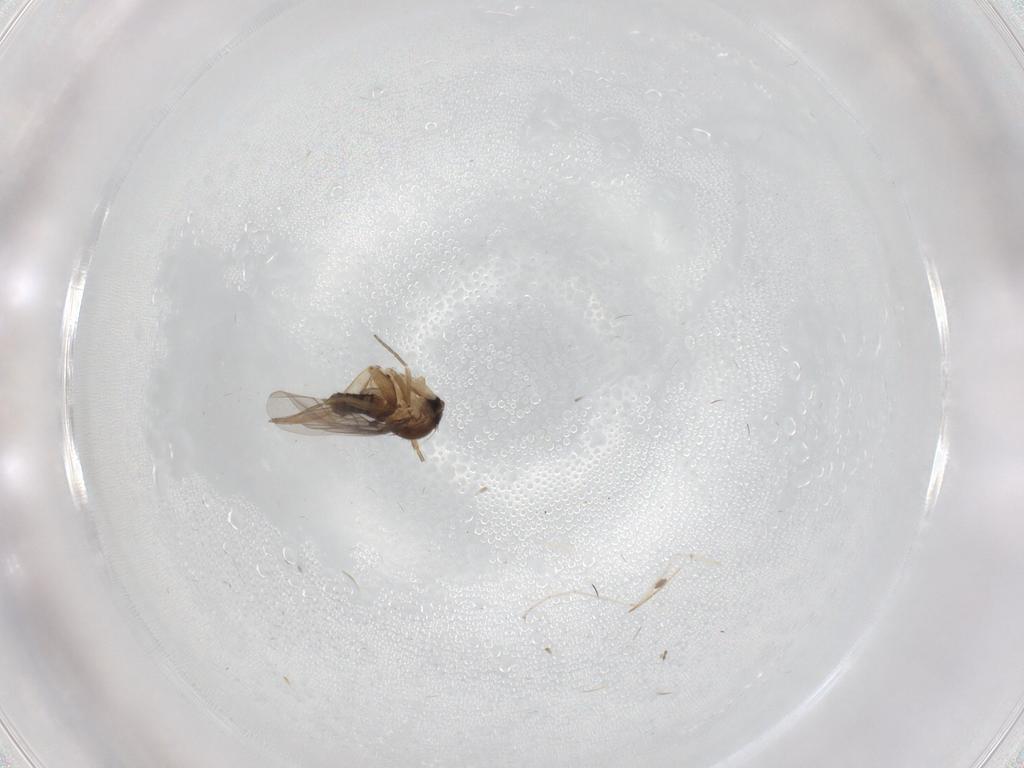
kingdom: Animalia
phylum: Arthropoda
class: Insecta
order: Diptera
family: Phoridae
